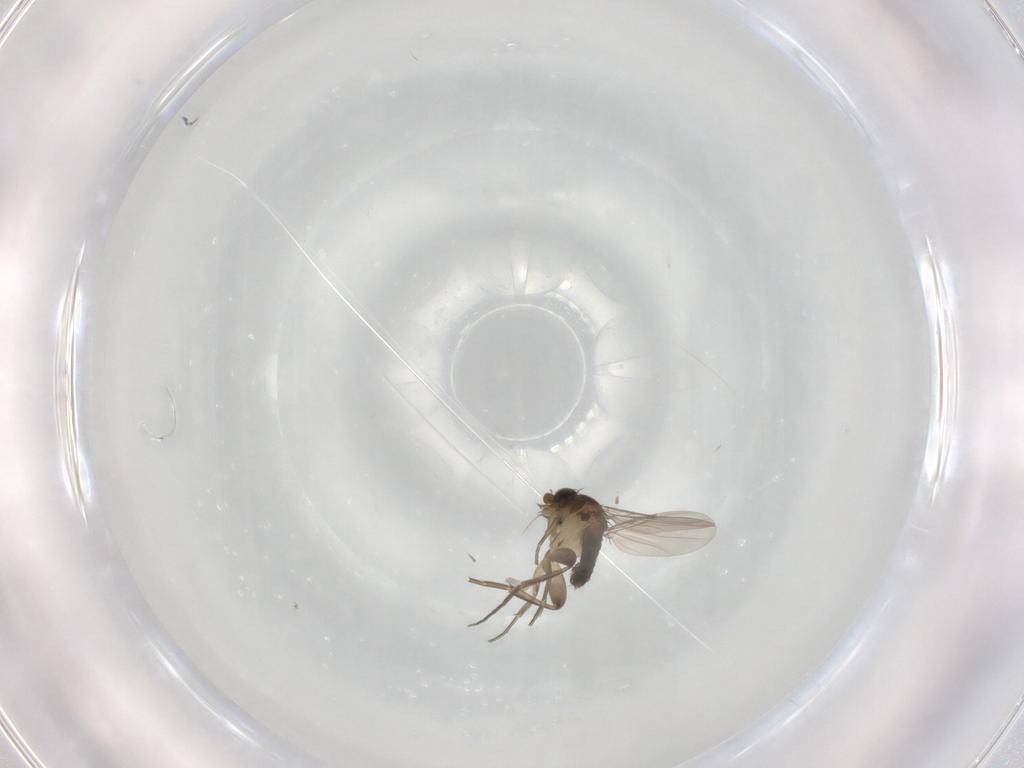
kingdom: Animalia
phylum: Arthropoda
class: Insecta
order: Diptera
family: Phoridae
